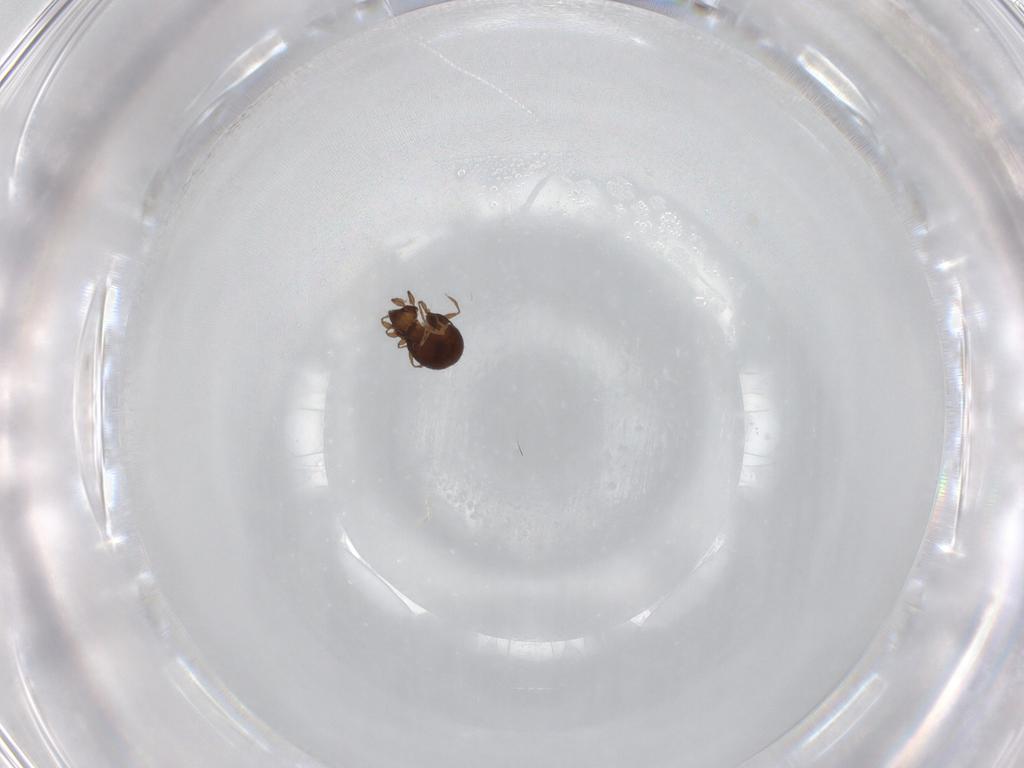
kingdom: Animalia
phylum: Arthropoda
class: Arachnida
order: Sarcoptiformes
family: Oribatulidae
